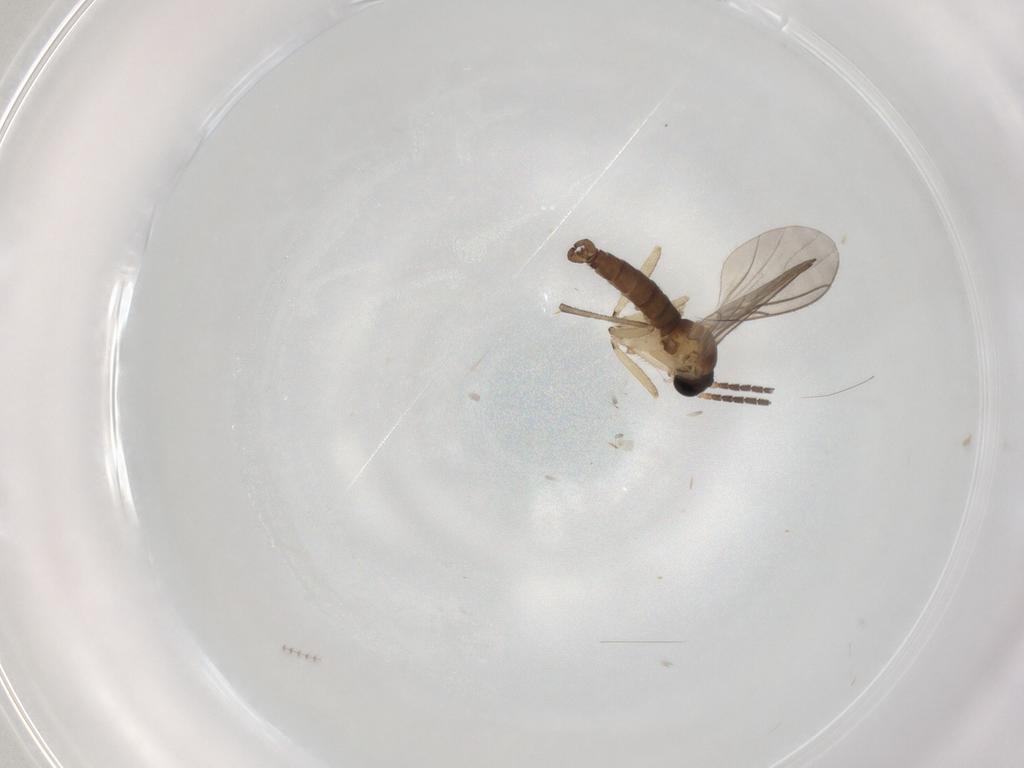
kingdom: Animalia
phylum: Arthropoda
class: Insecta
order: Diptera
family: Sciaridae
